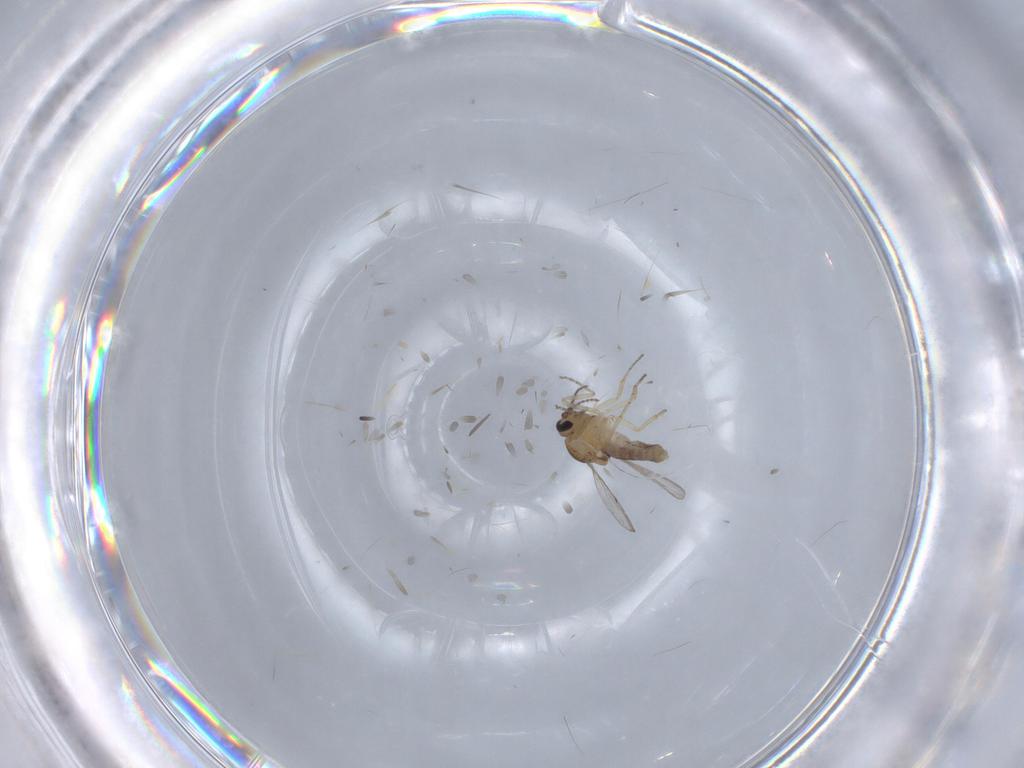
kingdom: Animalia
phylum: Arthropoda
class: Insecta
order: Diptera
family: Ceratopogonidae
